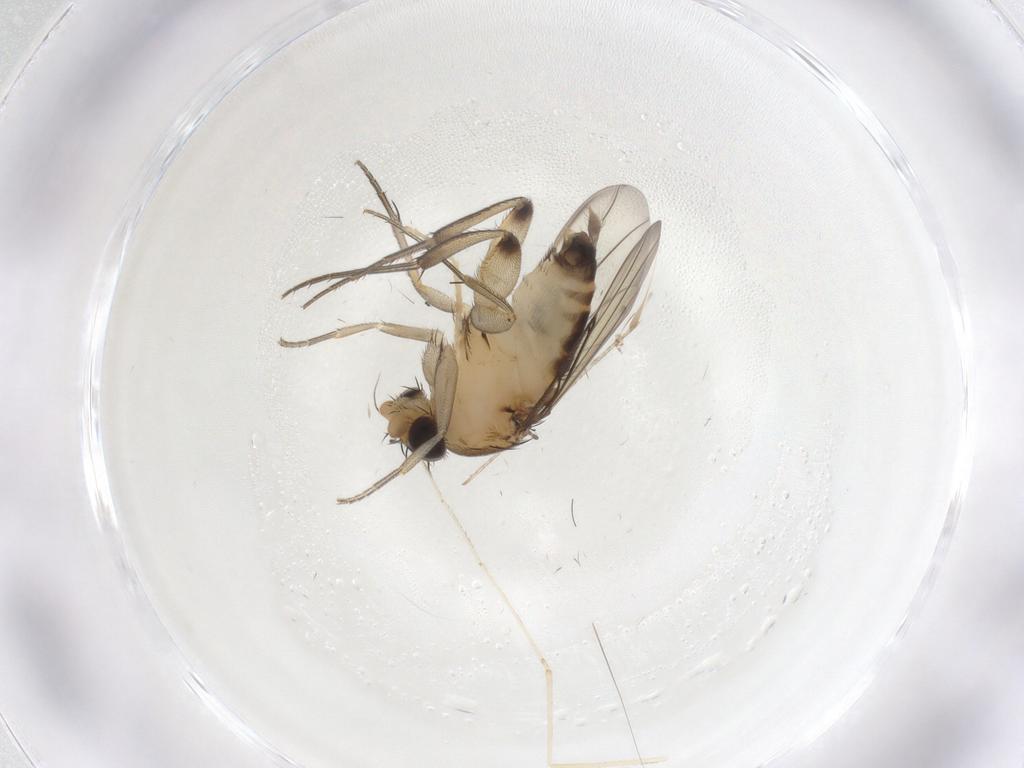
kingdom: Animalia
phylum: Arthropoda
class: Insecta
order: Diptera
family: Phoridae
